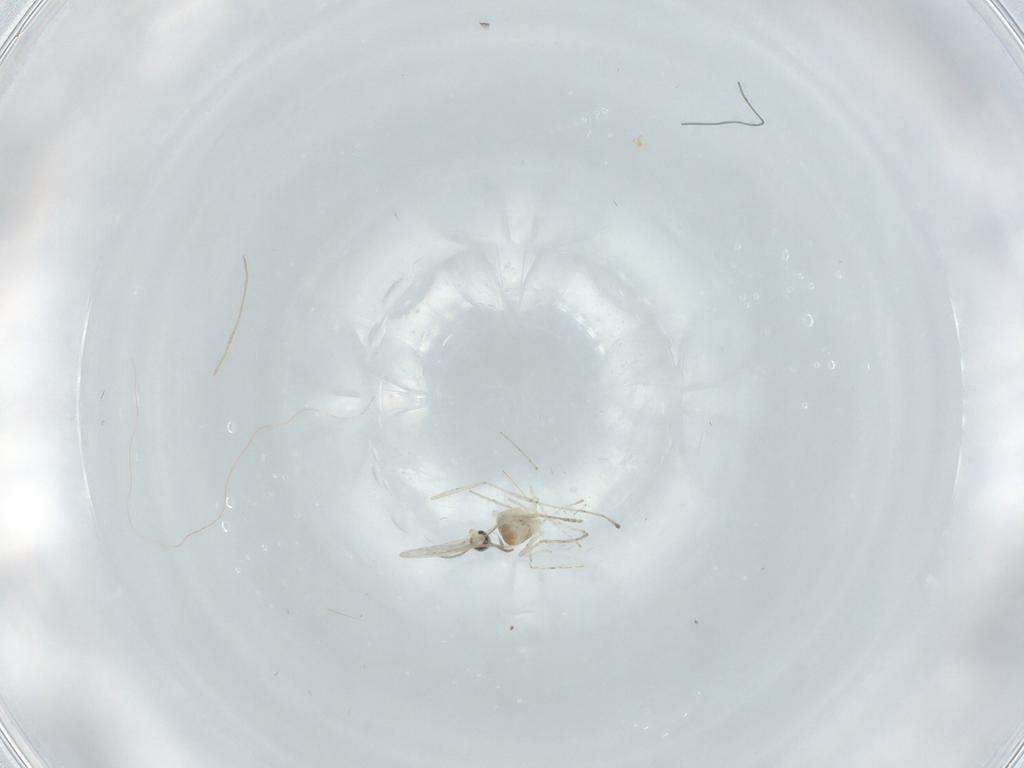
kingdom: Animalia
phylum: Arthropoda
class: Insecta
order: Diptera
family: Cecidomyiidae
